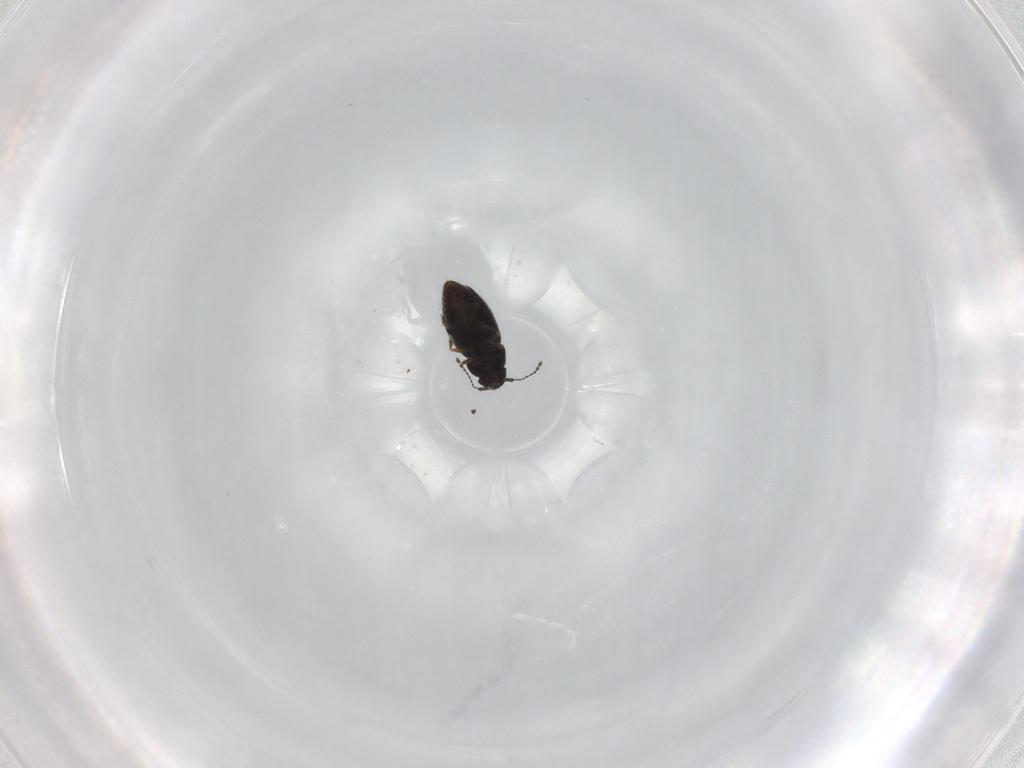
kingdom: Animalia
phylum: Arthropoda
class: Insecta
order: Coleoptera
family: Ptiliidae
